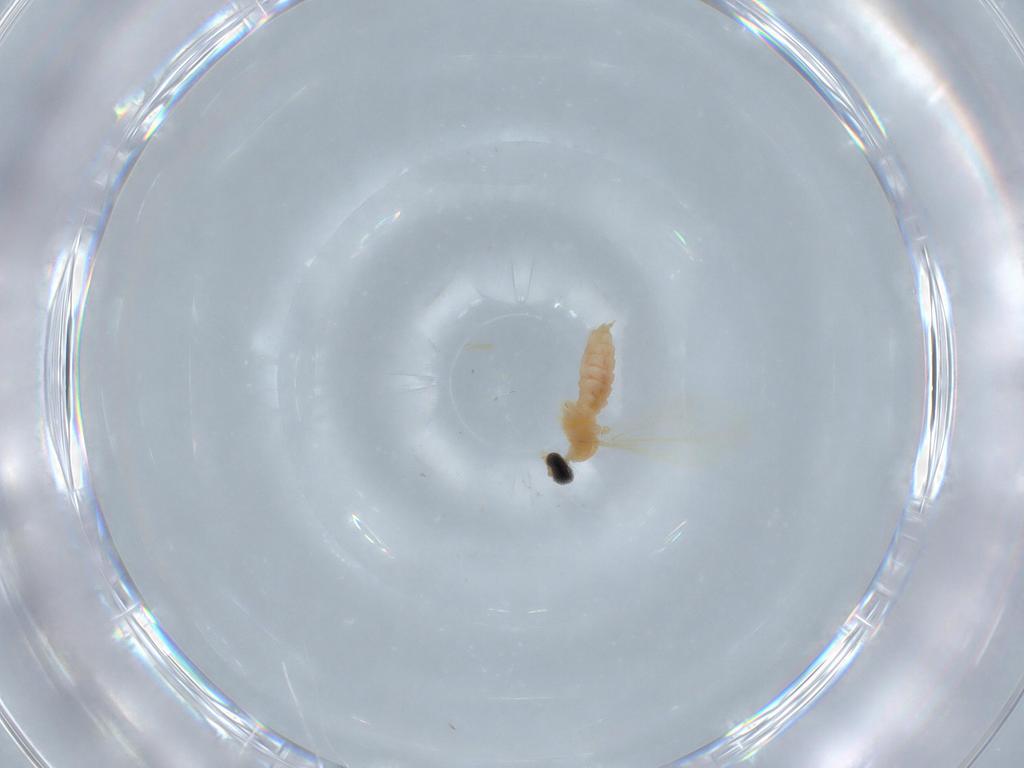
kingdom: Animalia
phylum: Arthropoda
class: Insecta
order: Diptera
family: Cecidomyiidae
